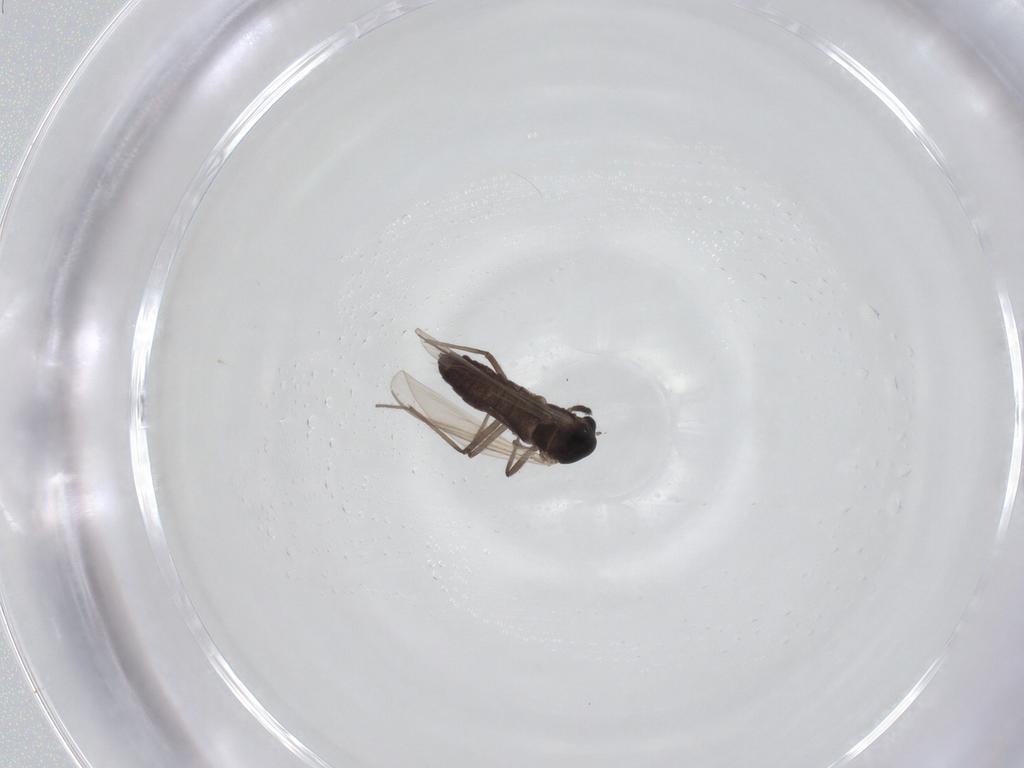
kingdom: Animalia
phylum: Arthropoda
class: Insecta
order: Diptera
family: Chironomidae
